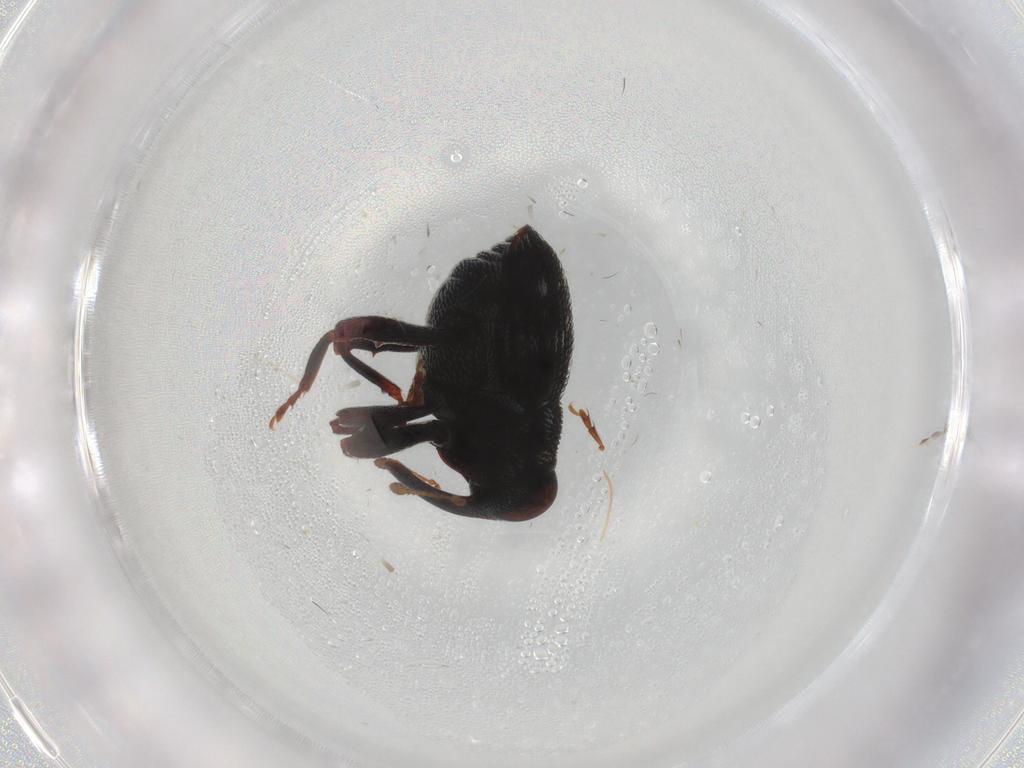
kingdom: Animalia
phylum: Arthropoda
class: Insecta
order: Coleoptera
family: Curculionidae
